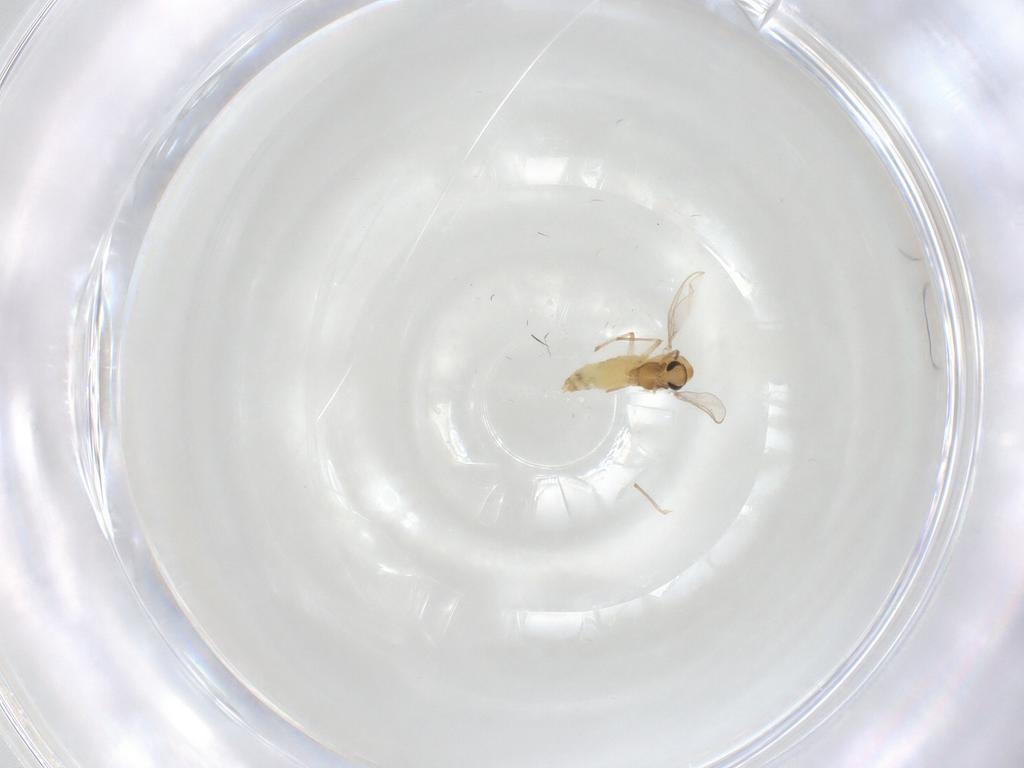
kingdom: Animalia
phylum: Arthropoda
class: Insecta
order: Diptera
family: Chironomidae
